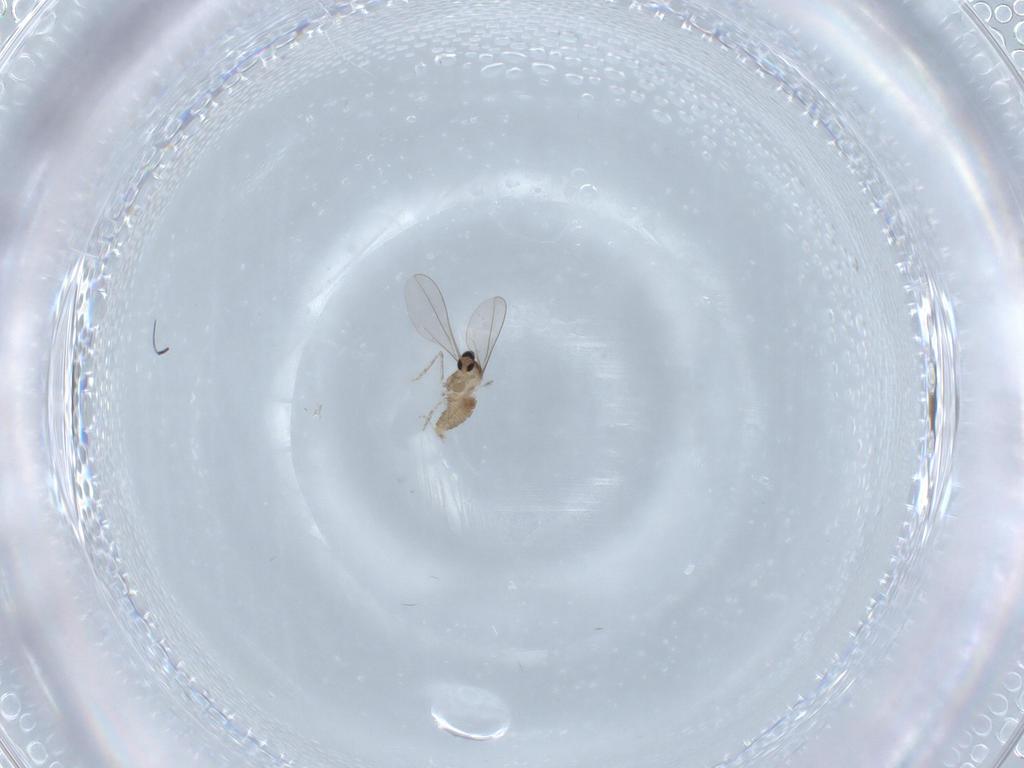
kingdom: Animalia
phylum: Arthropoda
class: Insecta
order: Diptera
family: Cecidomyiidae
